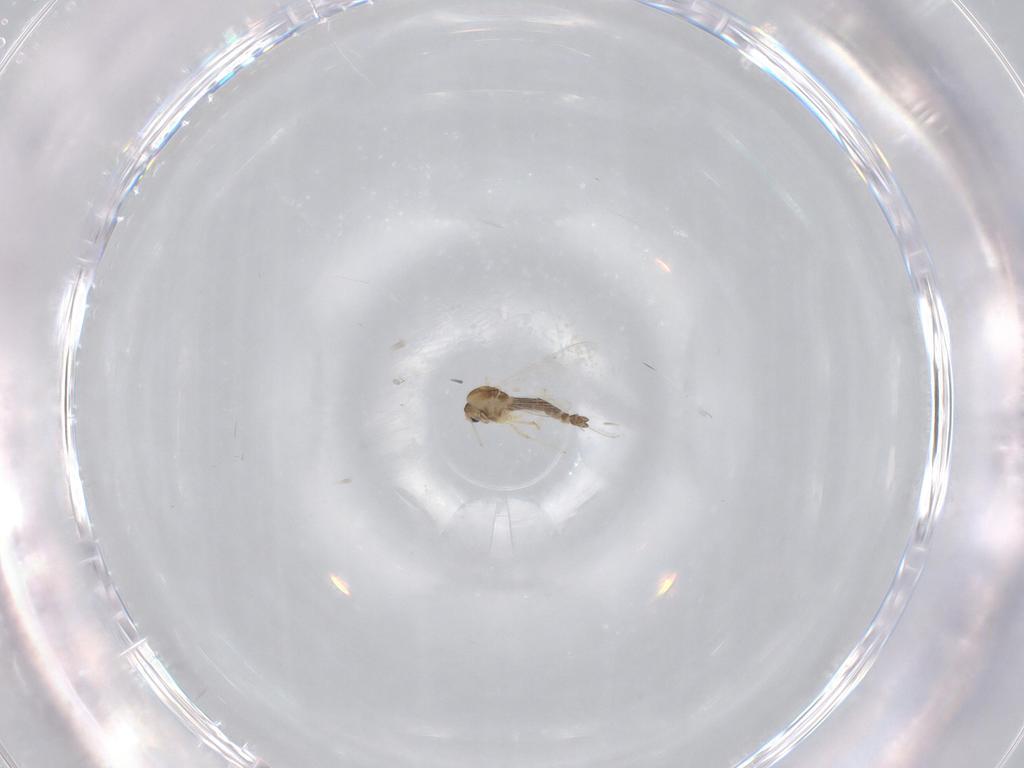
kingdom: Animalia
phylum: Arthropoda
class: Insecta
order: Diptera
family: Chironomidae
